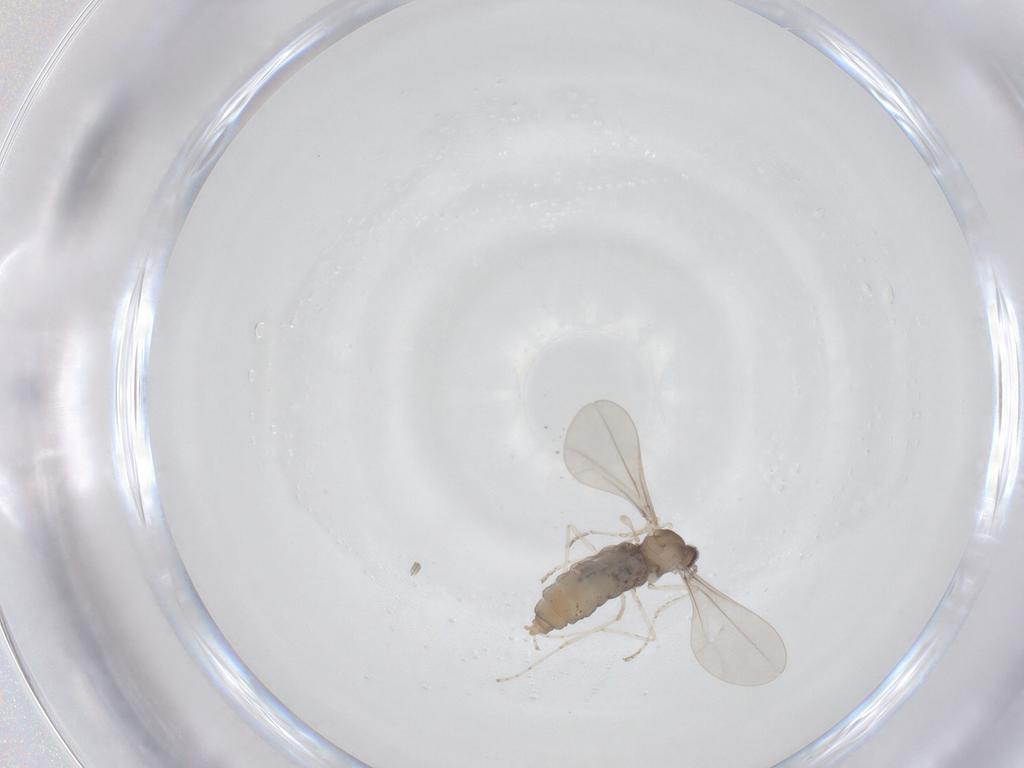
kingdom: Animalia
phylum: Arthropoda
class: Insecta
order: Diptera
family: Cecidomyiidae
